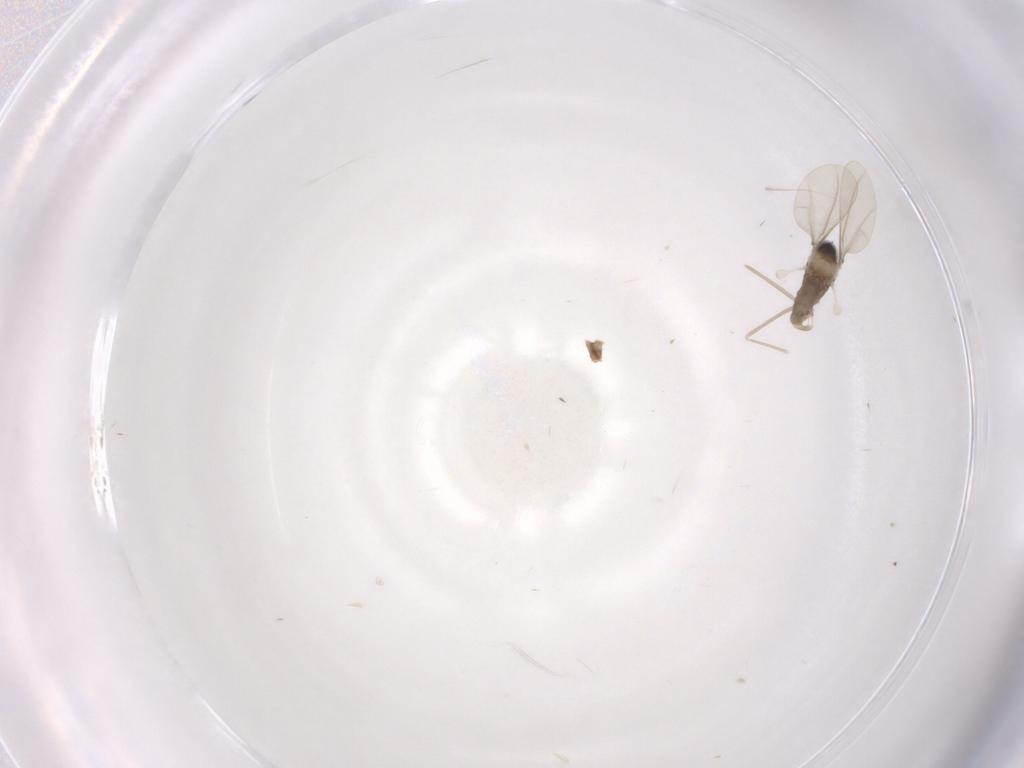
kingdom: Animalia
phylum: Arthropoda
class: Insecta
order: Diptera
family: Cecidomyiidae
